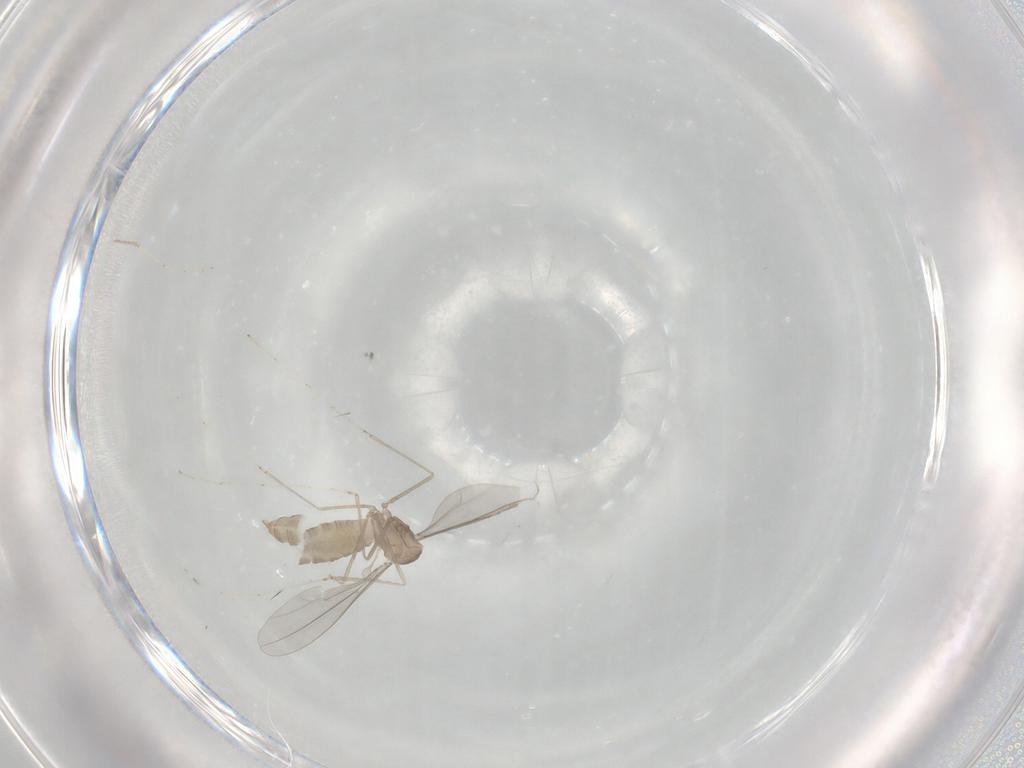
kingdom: Animalia
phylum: Arthropoda
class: Insecta
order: Diptera
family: Cecidomyiidae
